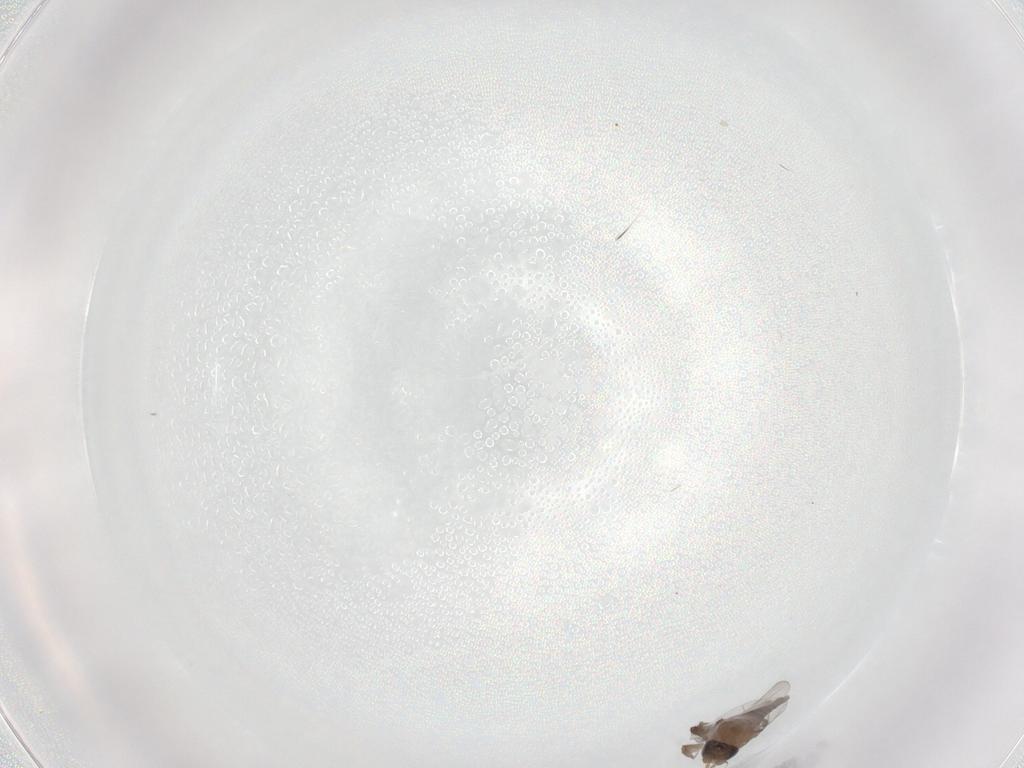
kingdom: Animalia
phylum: Arthropoda
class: Insecta
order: Diptera
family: Phoridae
